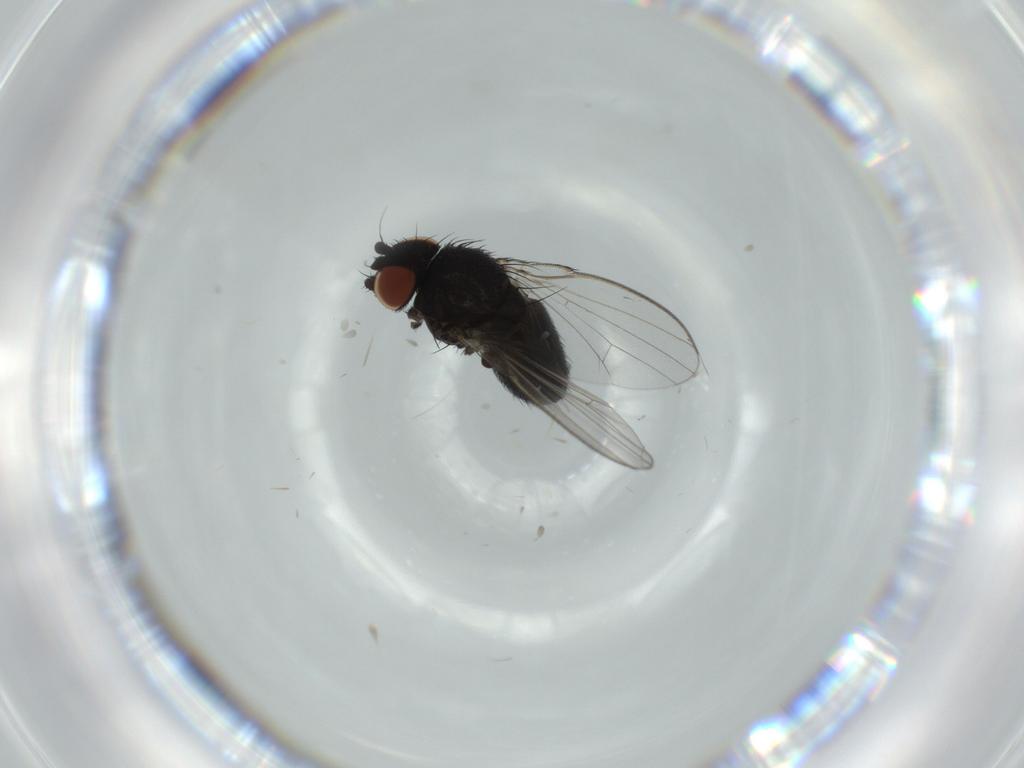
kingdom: Animalia
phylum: Arthropoda
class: Insecta
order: Diptera
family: Milichiidae
